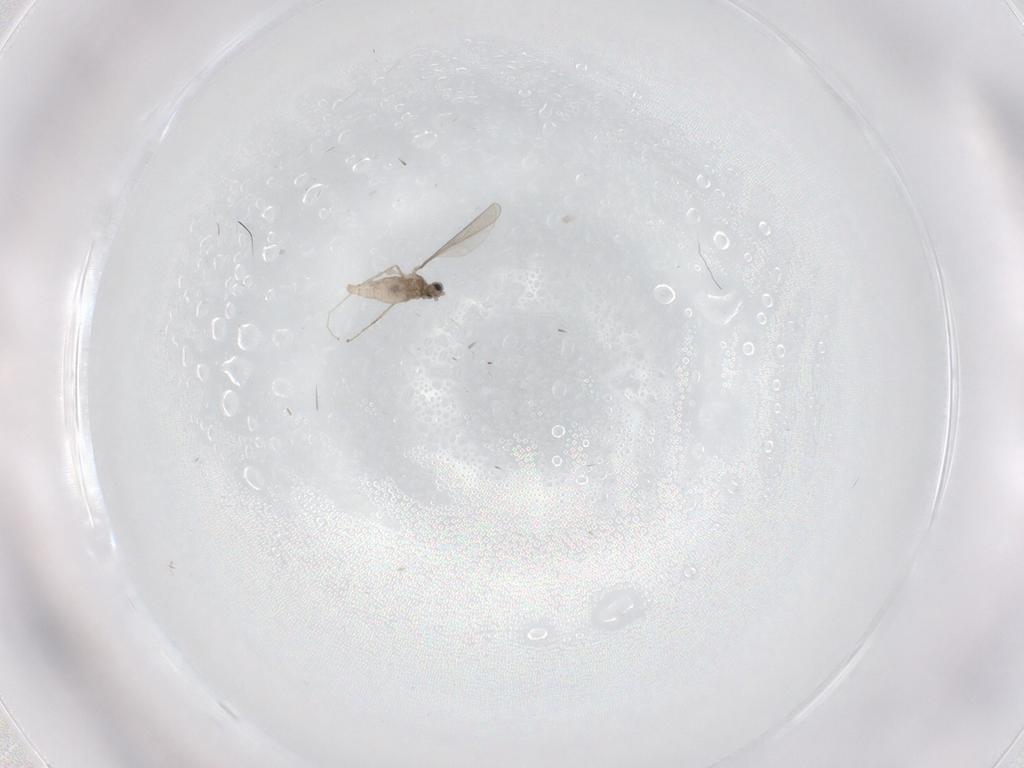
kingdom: Animalia
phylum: Arthropoda
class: Insecta
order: Diptera
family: Cecidomyiidae
